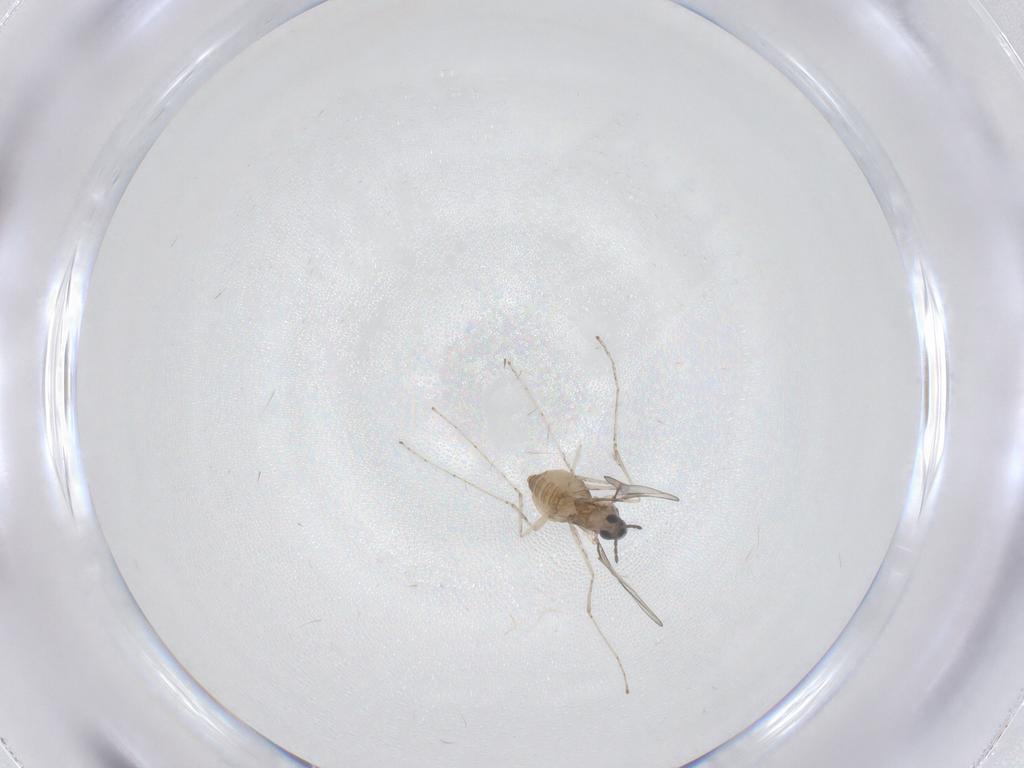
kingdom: Animalia
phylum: Arthropoda
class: Insecta
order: Diptera
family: Cecidomyiidae
